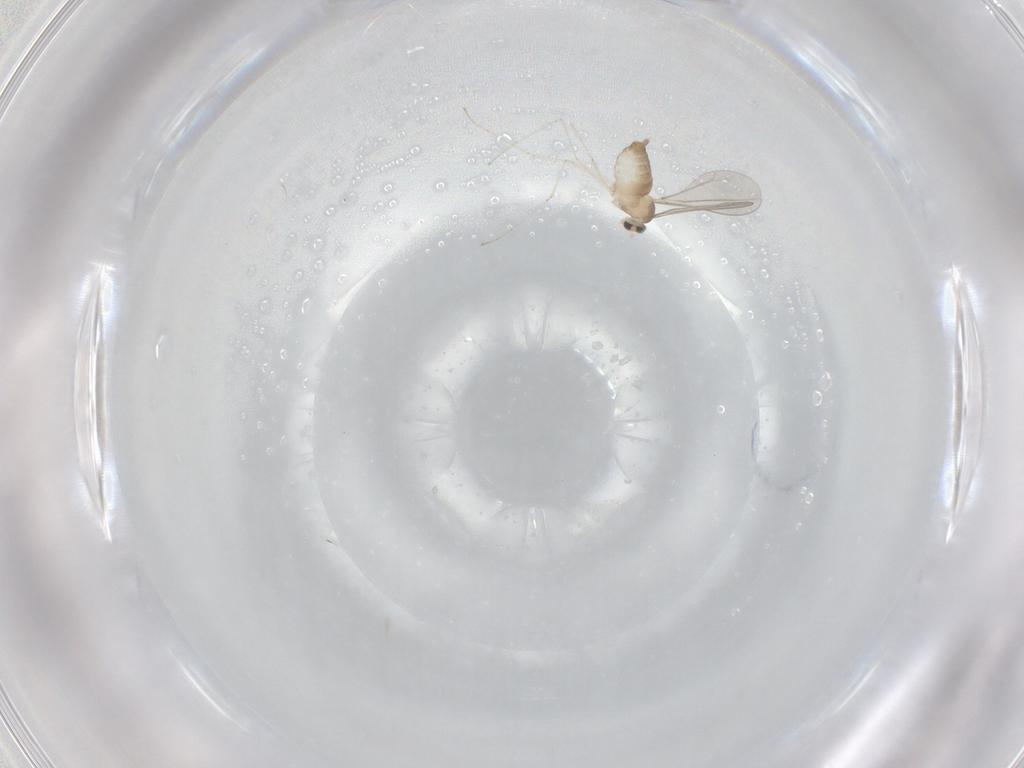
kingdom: Animalia
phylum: Arthropoda
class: Insecta
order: Diptera
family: Cecidomyiidae
